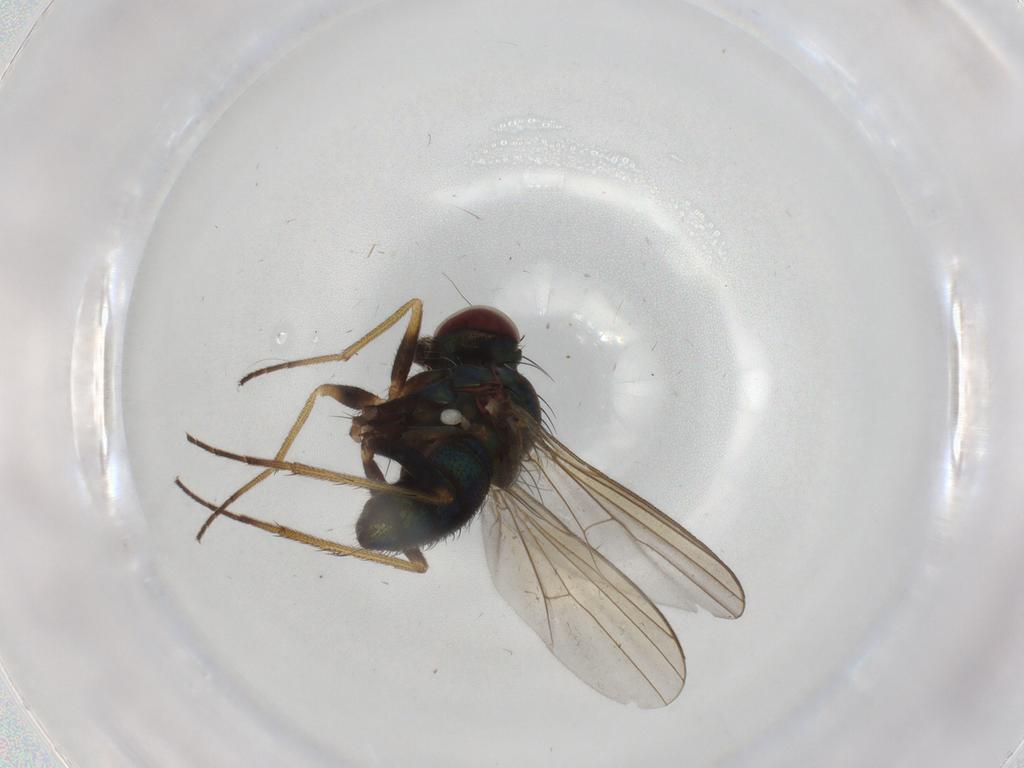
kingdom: Animalia
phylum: Arthropoda
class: Insecta
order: Diptera
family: Dolichopodidae
